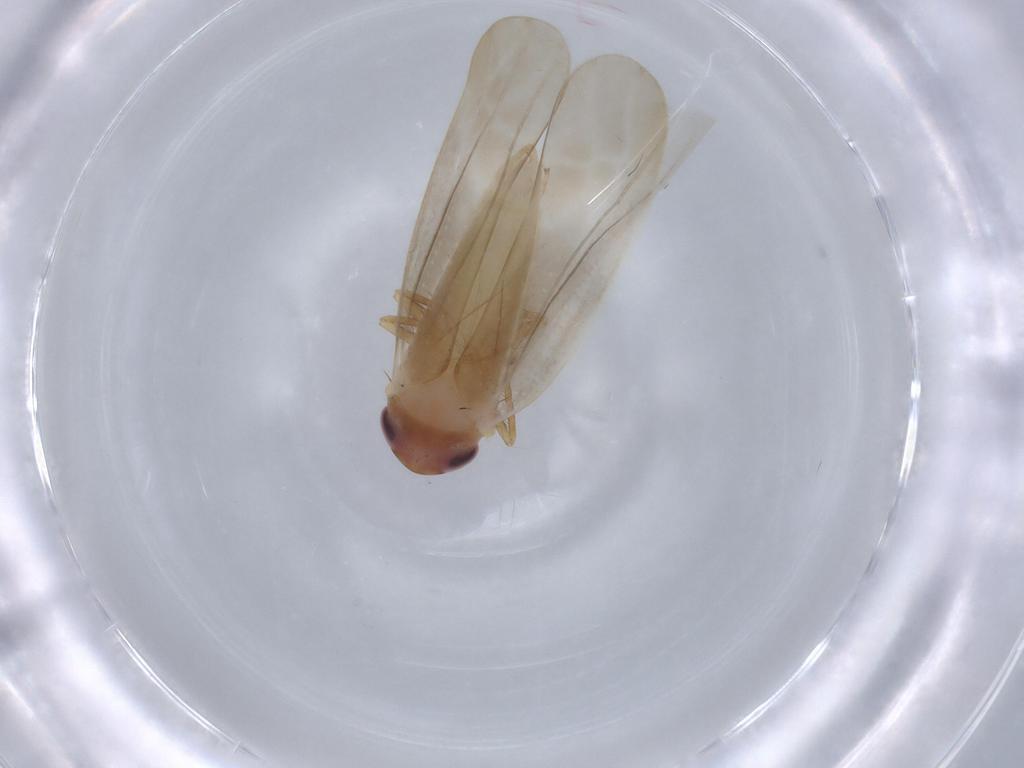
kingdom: Animalia
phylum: Arthropoda
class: Insecta
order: Hemiptera
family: Cicadellidae
